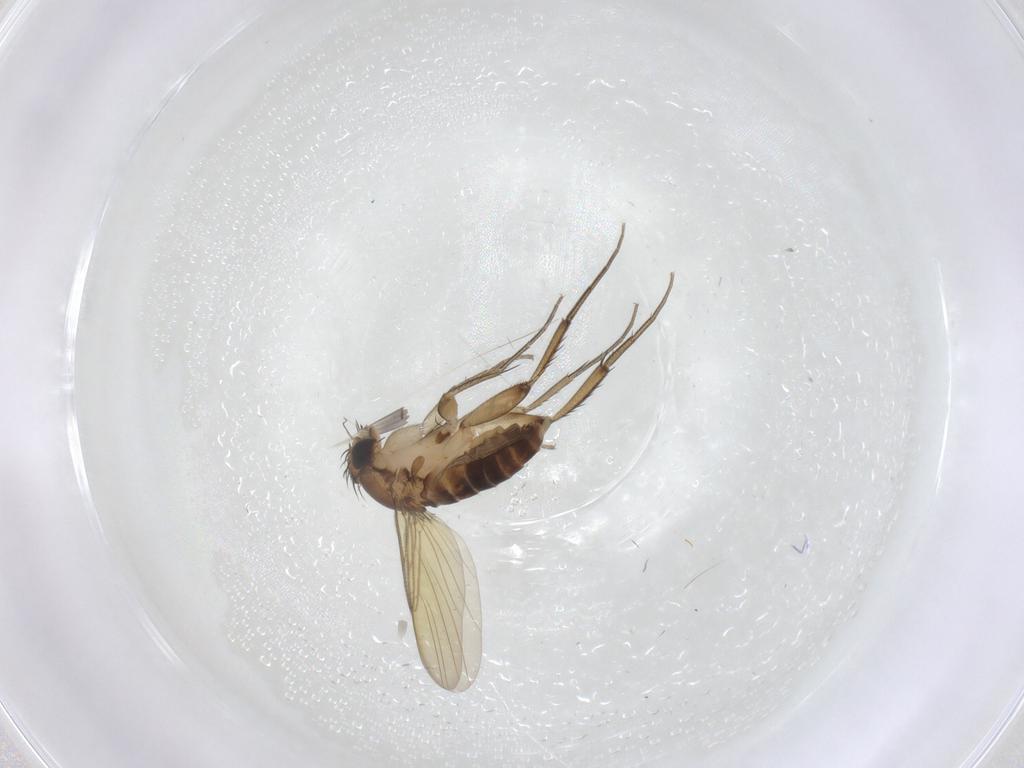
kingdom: Animalia
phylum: Arthropoda
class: Insecta
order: Diptera
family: Phoridae
